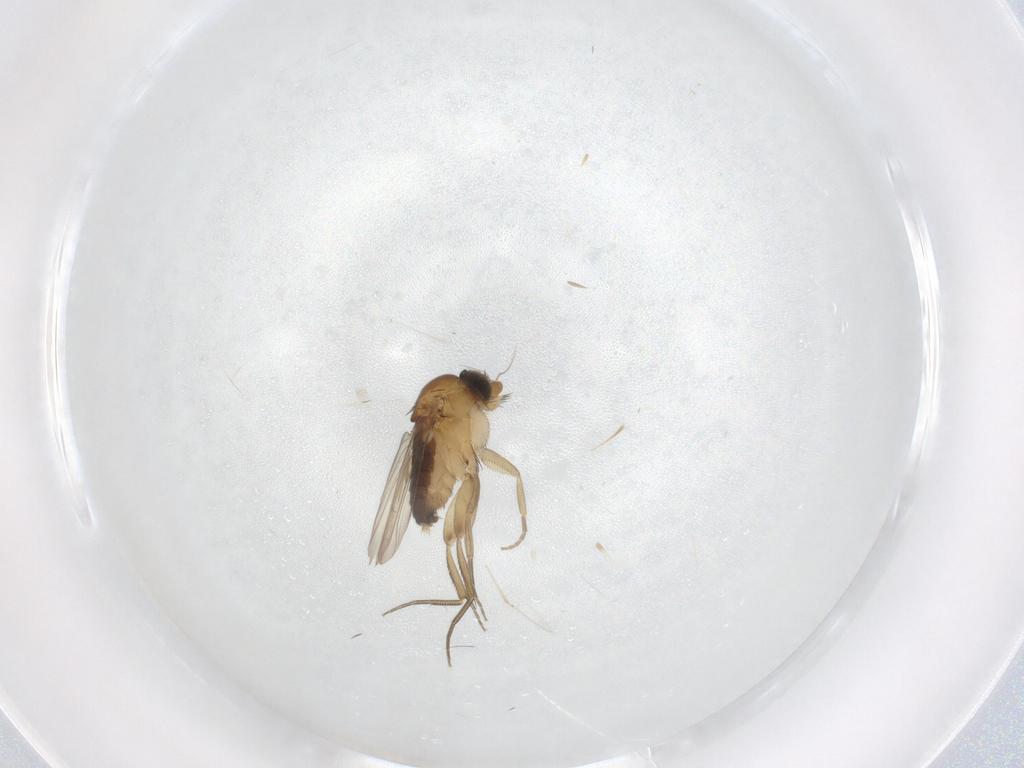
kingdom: Animalia
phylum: Arthropoda
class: Insecta
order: Diptera
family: Phoridae
